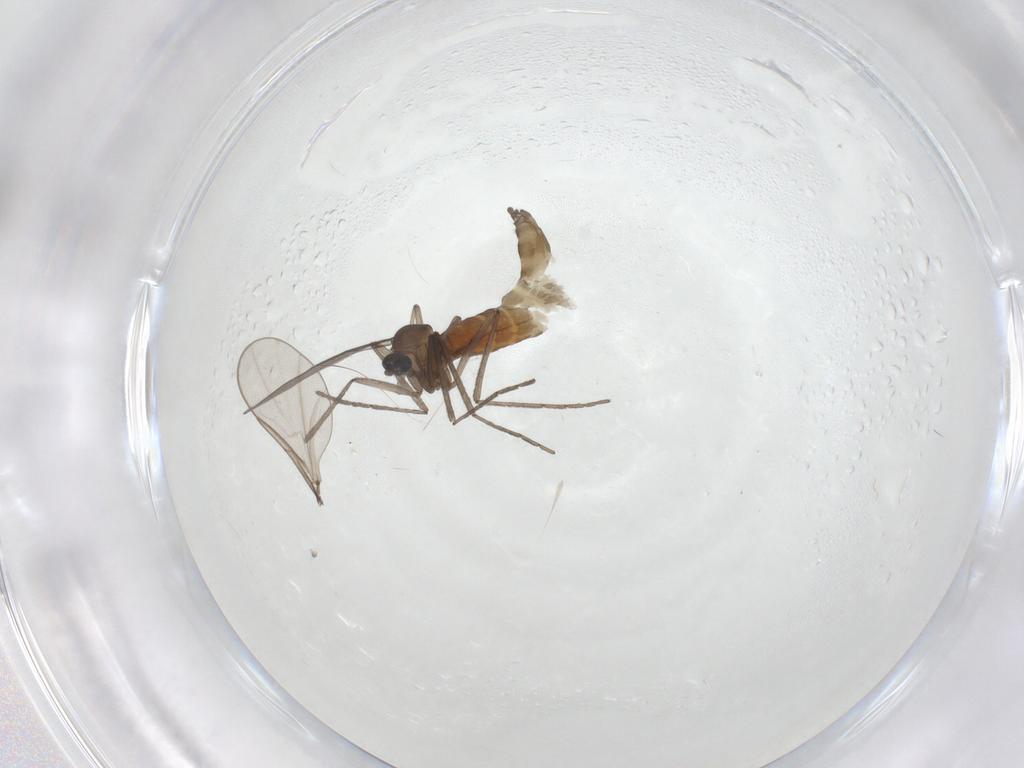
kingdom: Animalia
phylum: Arthropoda
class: Insecta
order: Diptera
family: Cecidomyiidae
